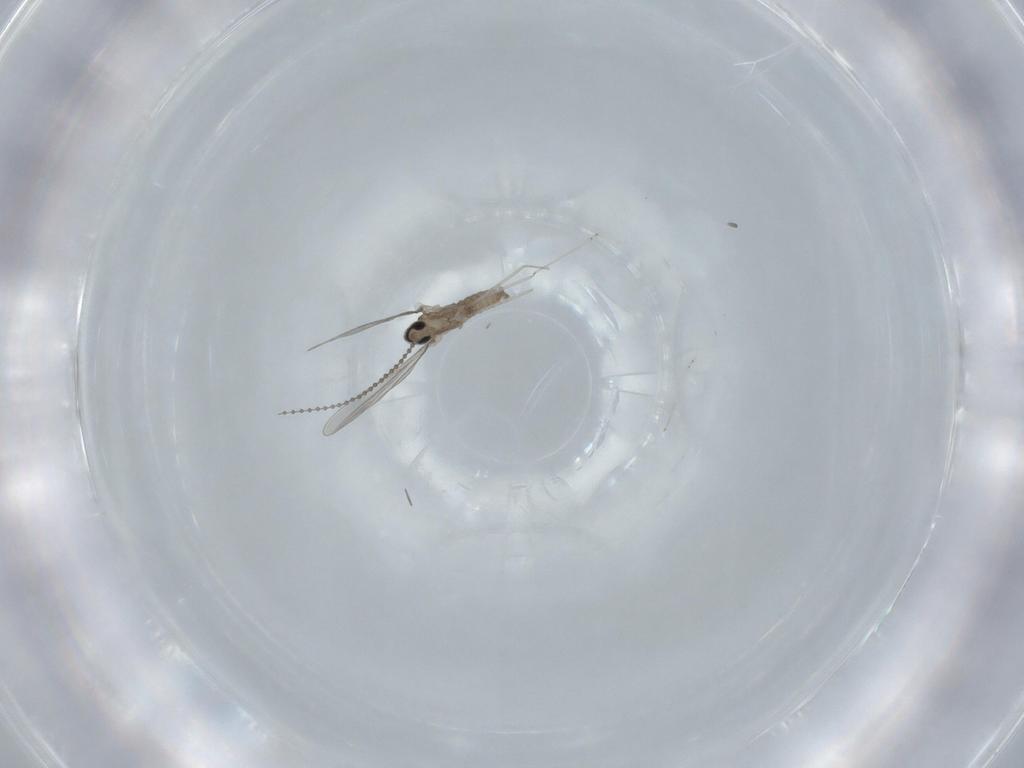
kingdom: Animalia
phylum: Arthropoda
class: Insecta
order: Diptera
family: Cecidomyiidae
